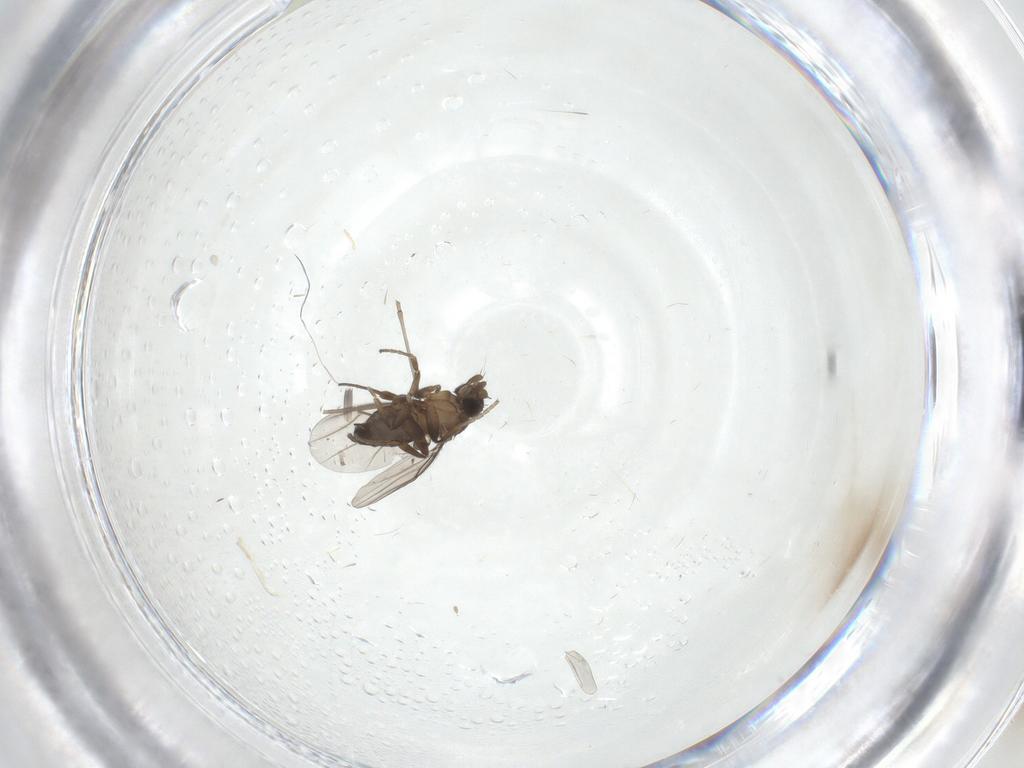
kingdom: Animalia
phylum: Arthropoda
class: Insecta
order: Diptera
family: Phoridae
